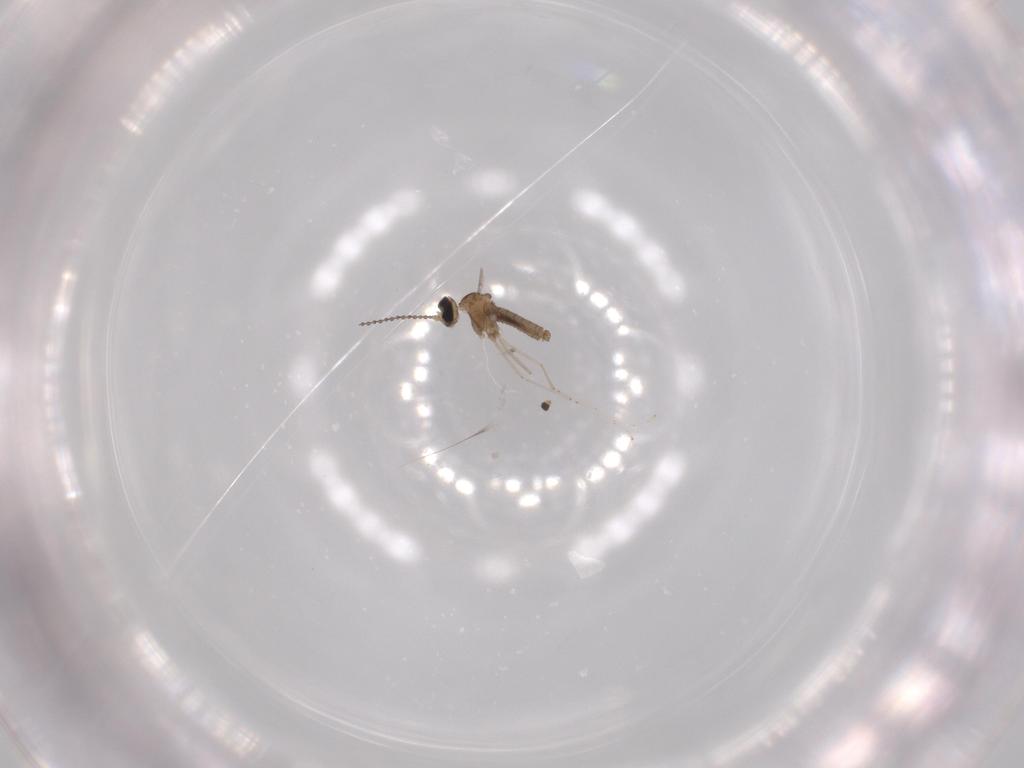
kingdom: Animalia
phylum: Arthropoda
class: Insecta
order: Diptera
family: Cecidomyiidae
